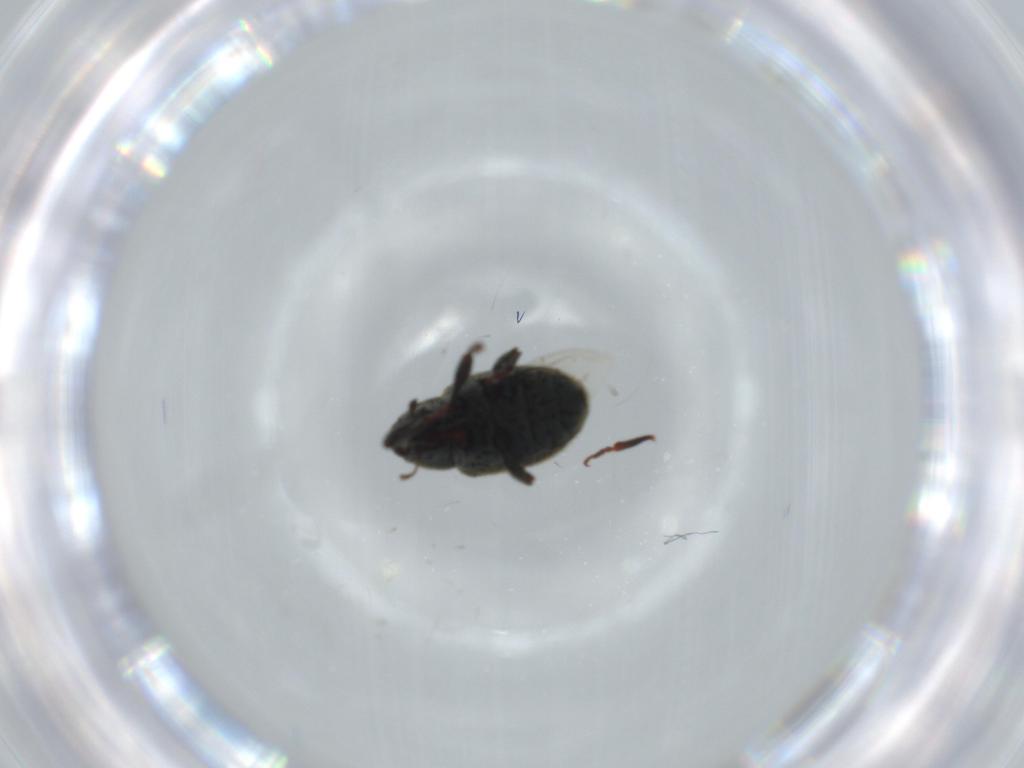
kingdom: Animalia
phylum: Arthropoda
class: Insecta
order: Coleoptera
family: Curculionidae
